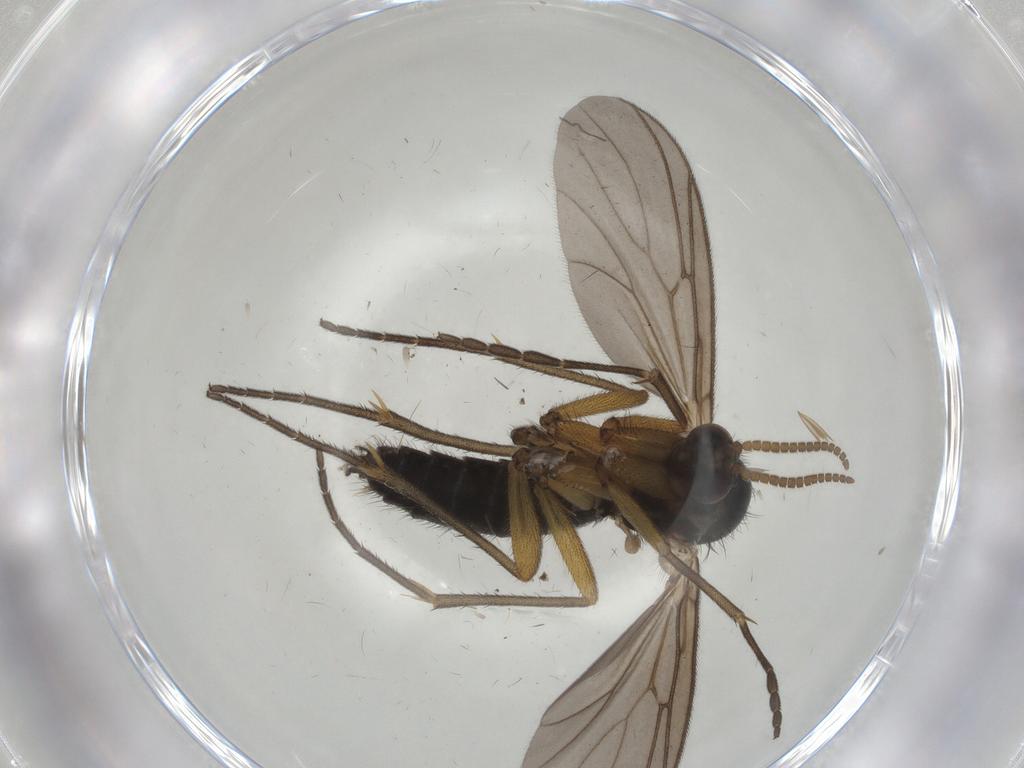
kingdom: Animalia
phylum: Arthropoda
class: Insecta
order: Diptera
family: Mycetophilidae
